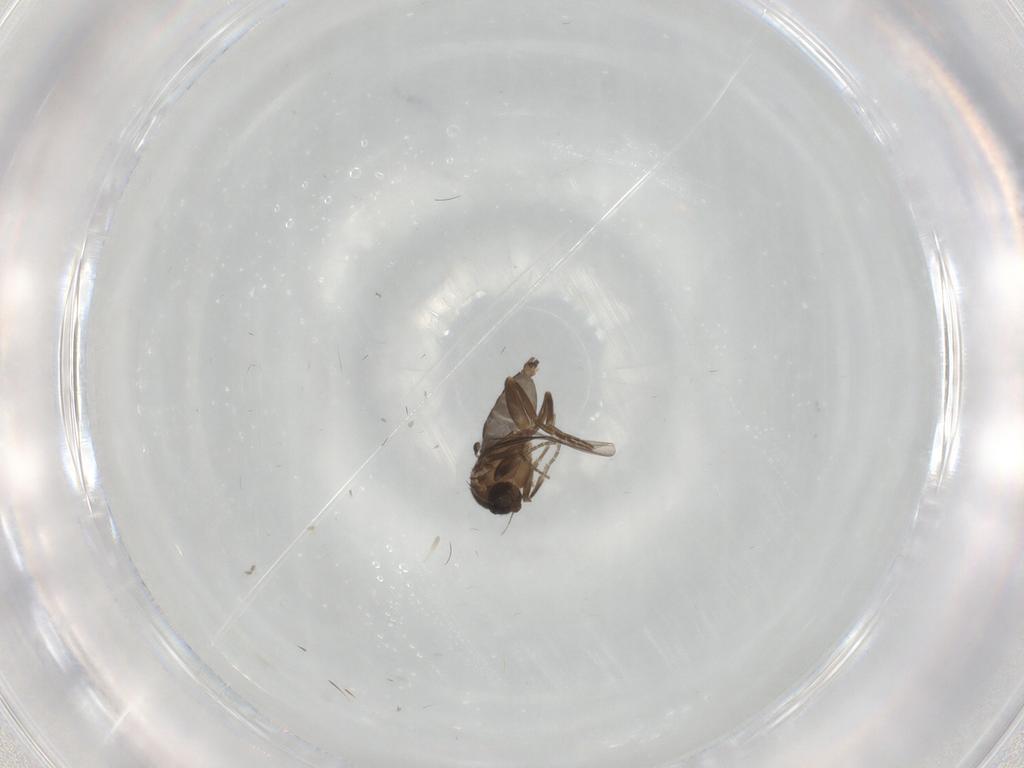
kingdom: Animalia
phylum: Arthropoda
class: Insecta
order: Diptera
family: Phoridae
